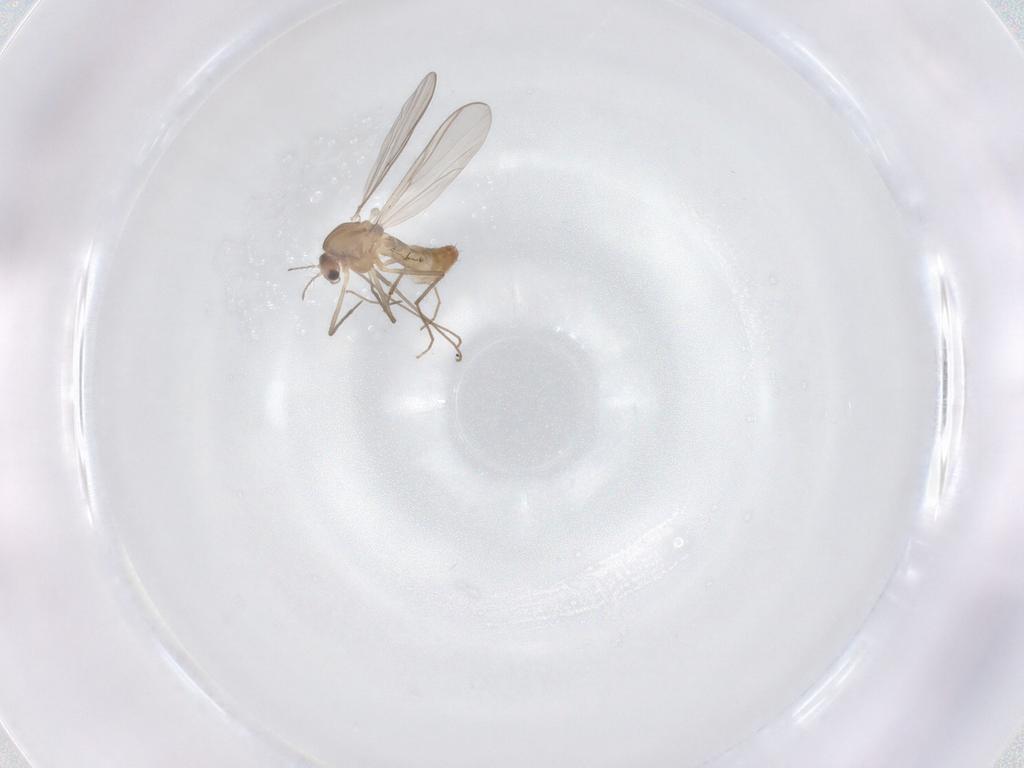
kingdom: Animalia
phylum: Arthropoda
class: Insecta
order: Diptera
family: Chironomidae
